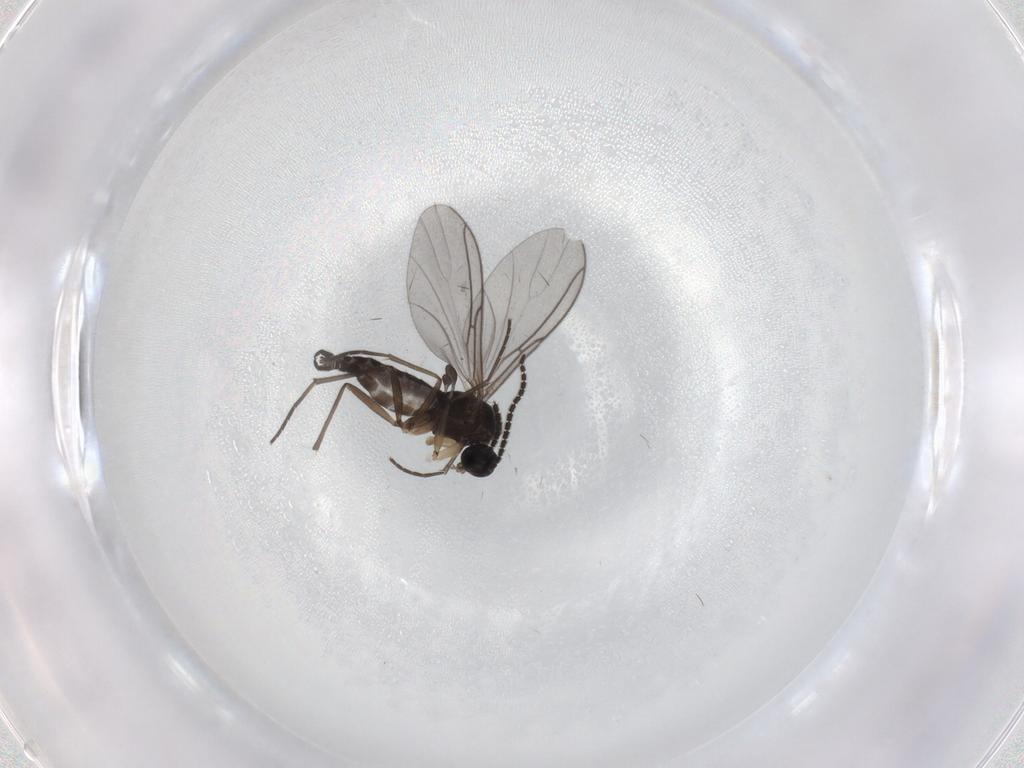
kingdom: Animalia
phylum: Arthropoda
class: Insecta
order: Diptera
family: Sciaridae
